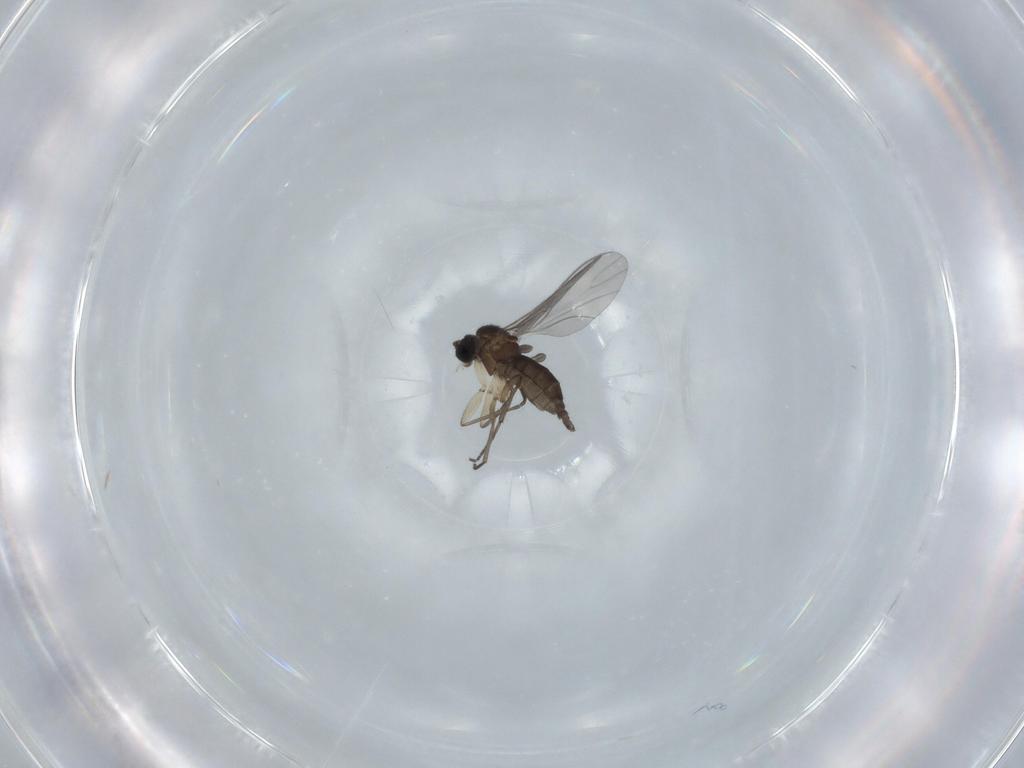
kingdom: Animalia
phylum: Arthropoda
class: Insecta
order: Diptera
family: Sciaridae
